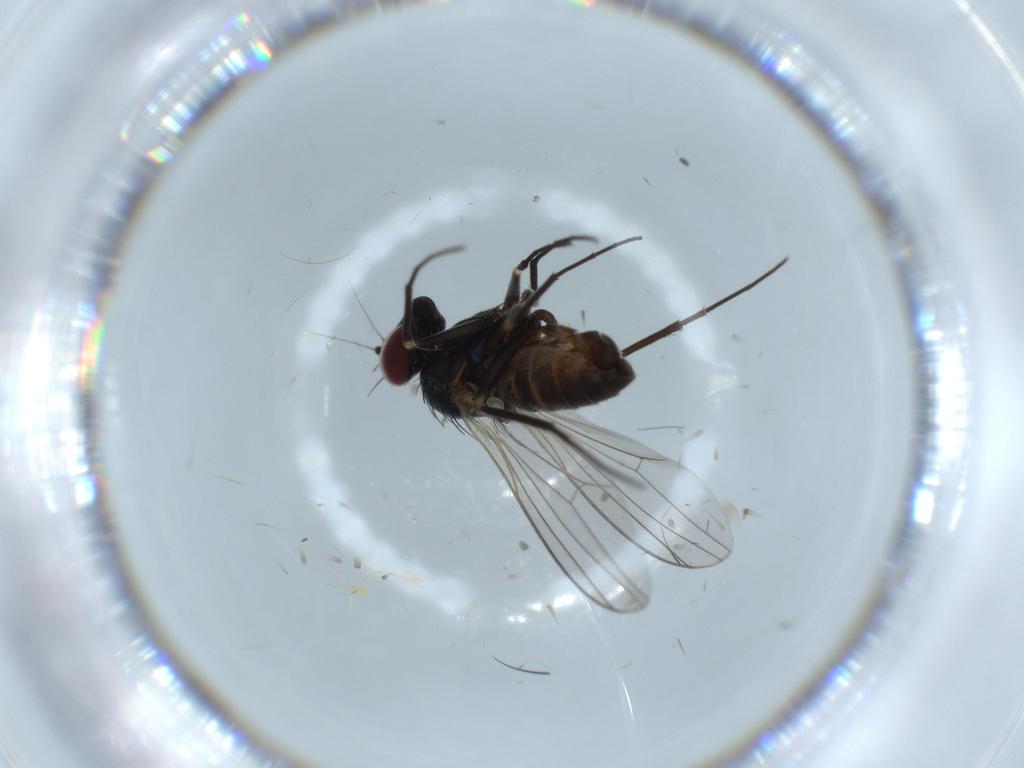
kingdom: Animalia
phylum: Arthropoda
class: Insecta
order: Diptera
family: Dolichopodidae
